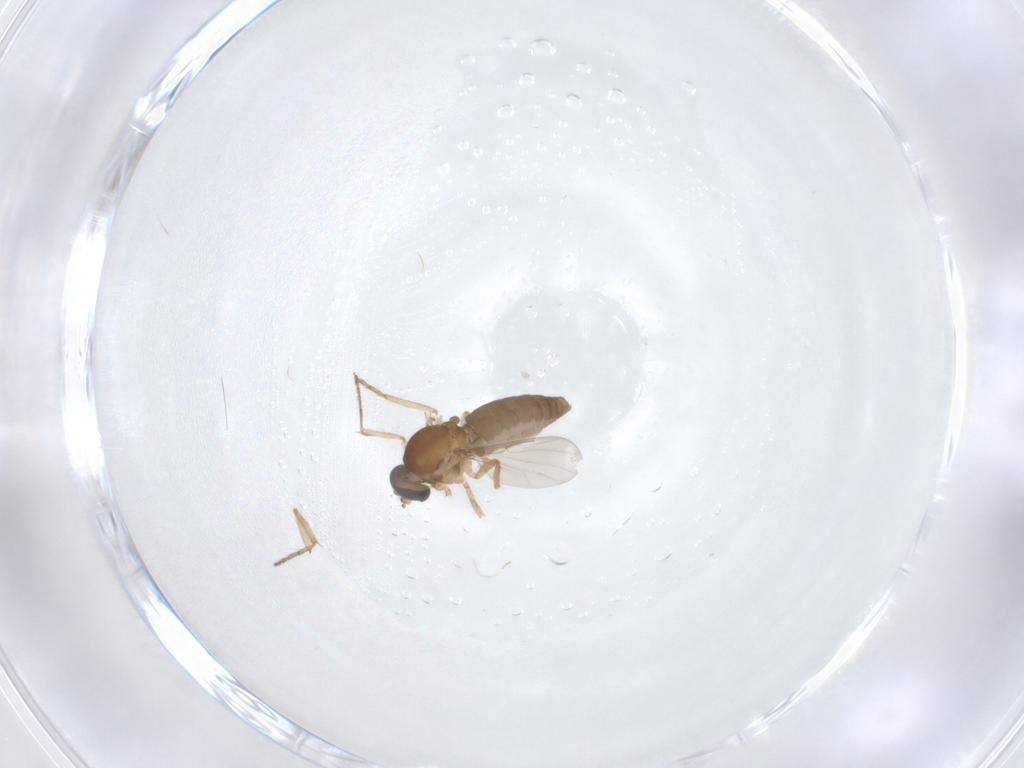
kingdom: Animalia
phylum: Arthropoda
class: Insecta
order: Diptera
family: Ceratopogonidae
